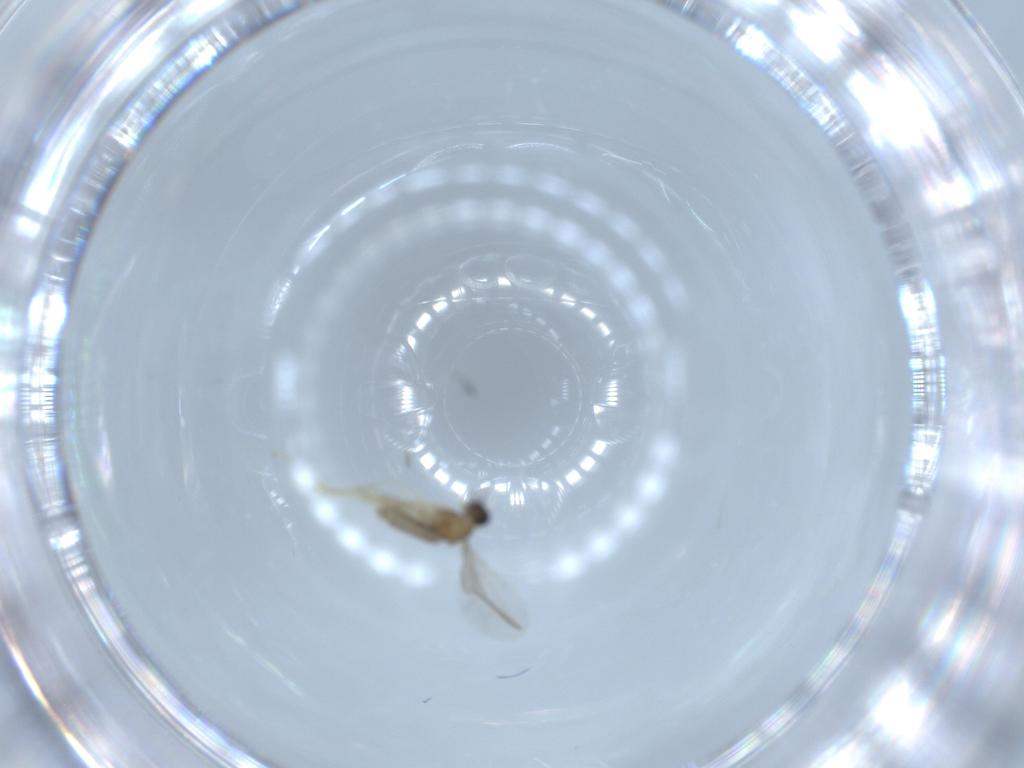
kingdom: Animalia
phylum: Arthropoda
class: Insecta
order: Diptera
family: Cecidomyiidae
